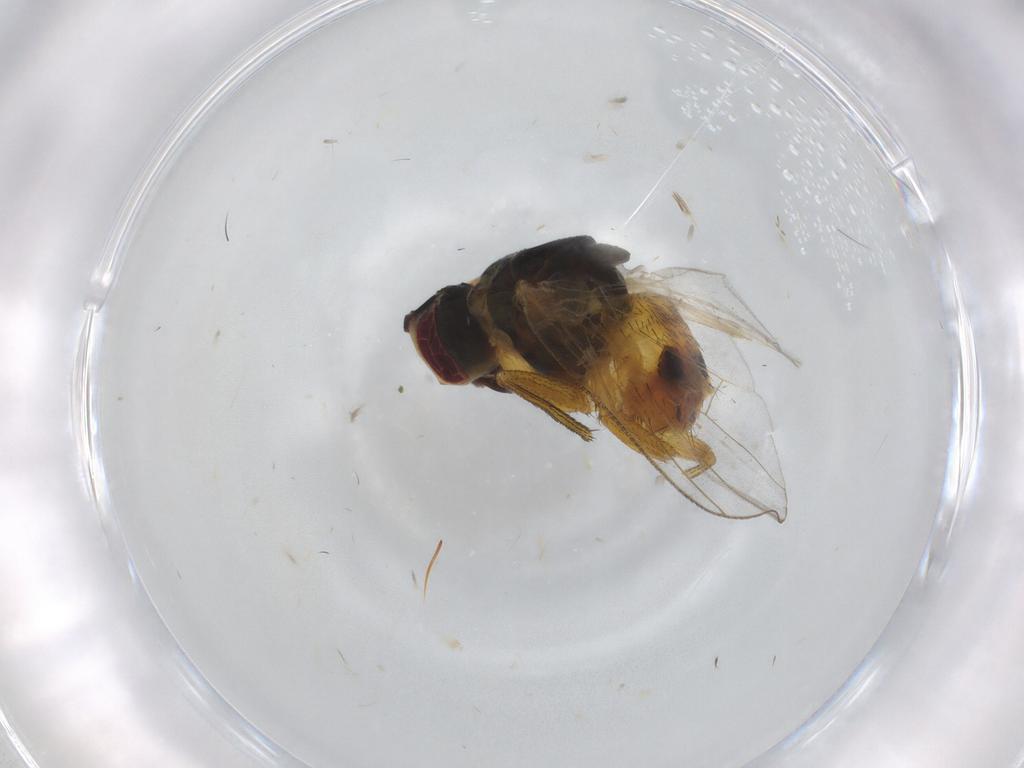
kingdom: Animalia
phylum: Arthropoda
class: Insecta
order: Diptera
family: Muscidae
